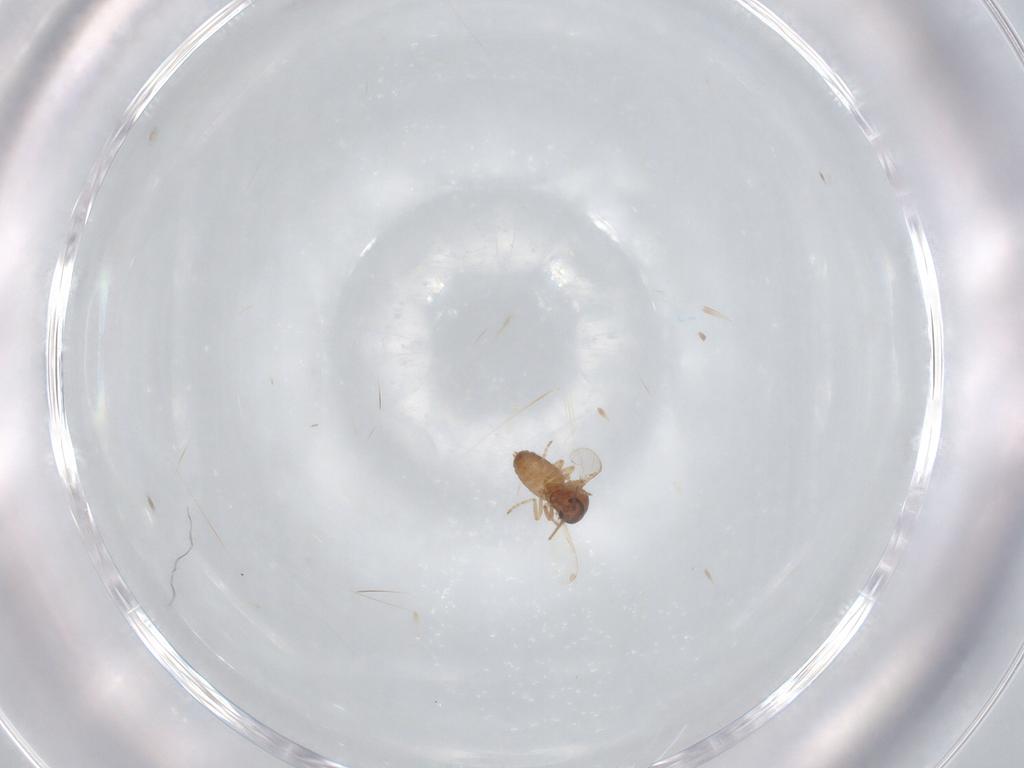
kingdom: Animalia
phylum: Arthropoda
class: Insecta
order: Diptera
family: Ceratopogonidae
